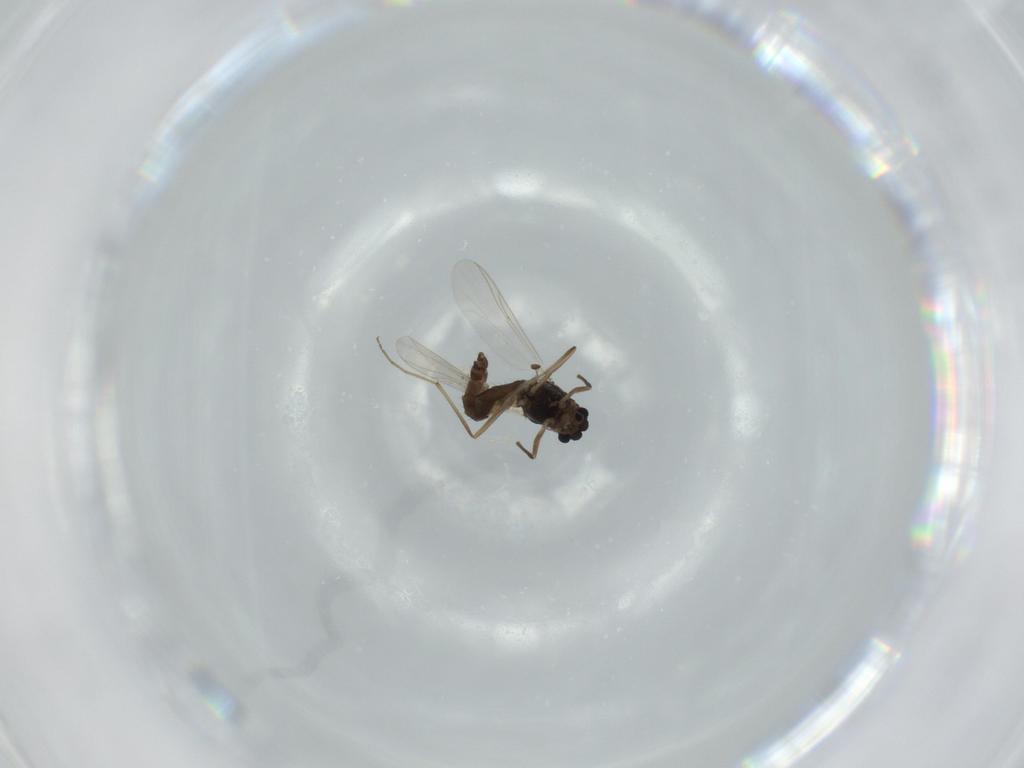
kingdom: Animalia
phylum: Arthropoda
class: Insecta
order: Diptera
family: Chironomidae
